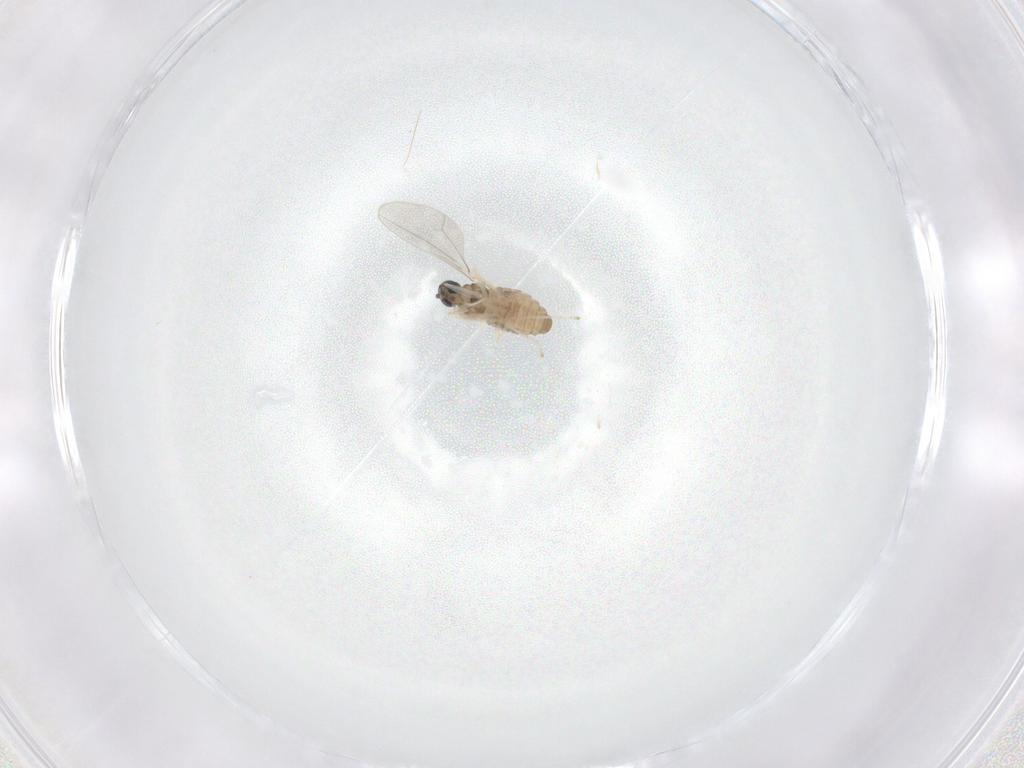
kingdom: Animalia
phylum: Arthropoda
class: Insecta
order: Diptera
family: Cecidomyiidae
